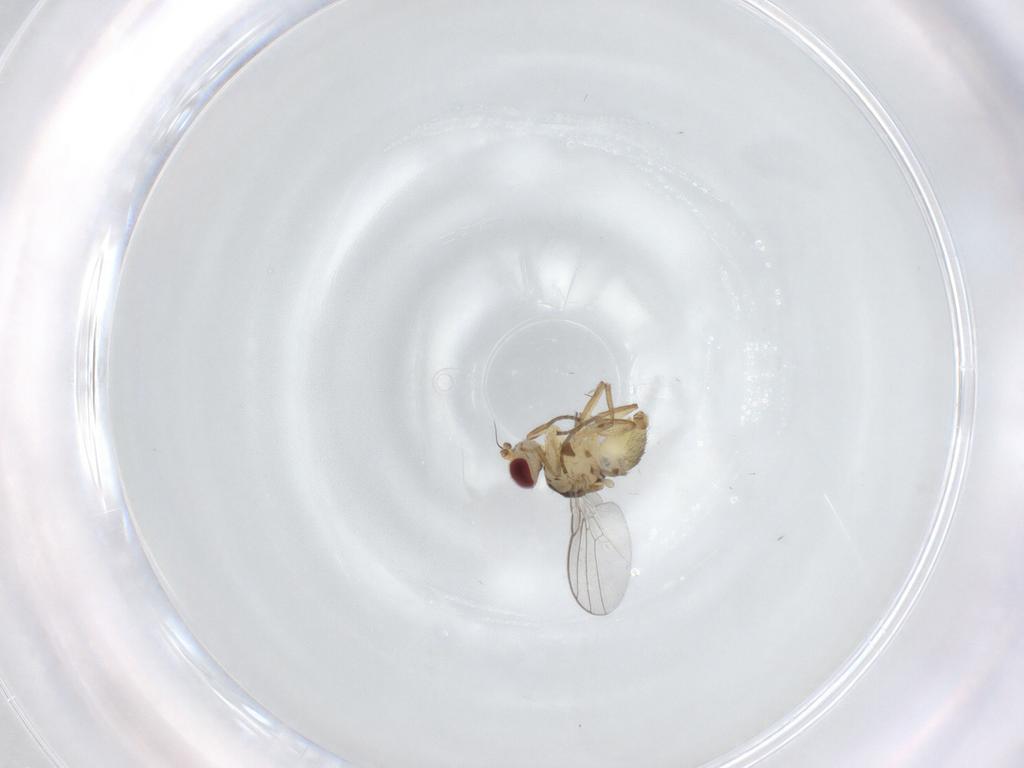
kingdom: Animalia
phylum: Arthropoda
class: Insecta
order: Diptera
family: Agromyzidae
